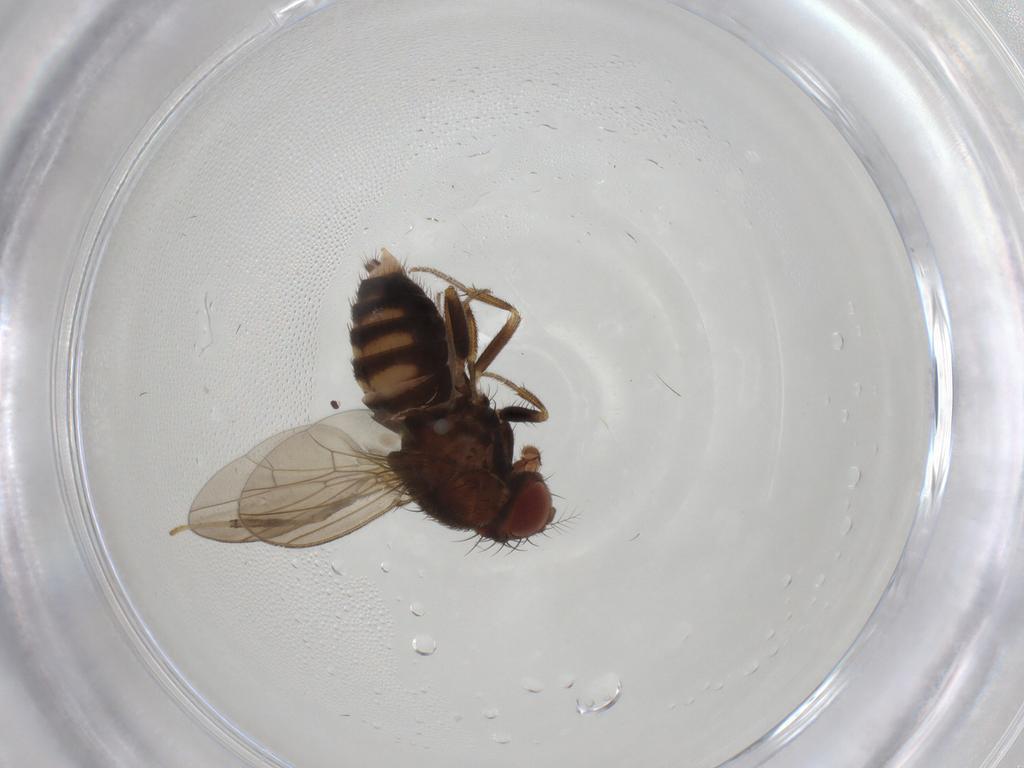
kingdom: Animalia
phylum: Arthropoda
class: Insecta
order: Diptera
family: Drosophilidae
